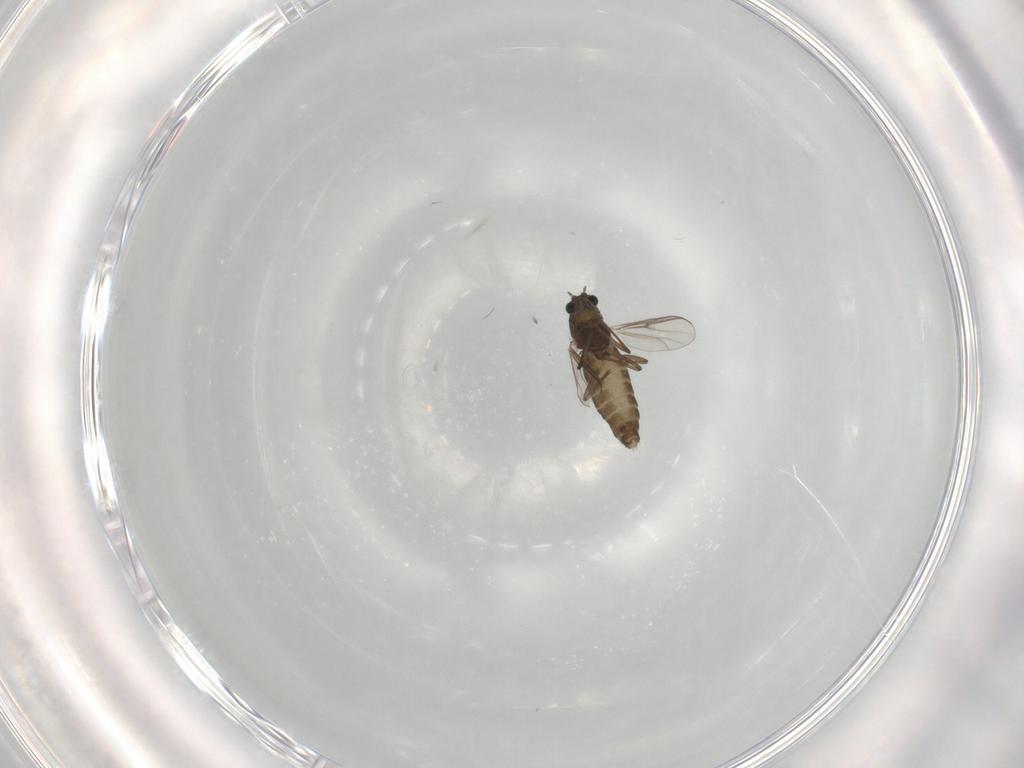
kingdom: Animalia
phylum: Arthropoda
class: Insecta
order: Diptera
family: Chironomidae
